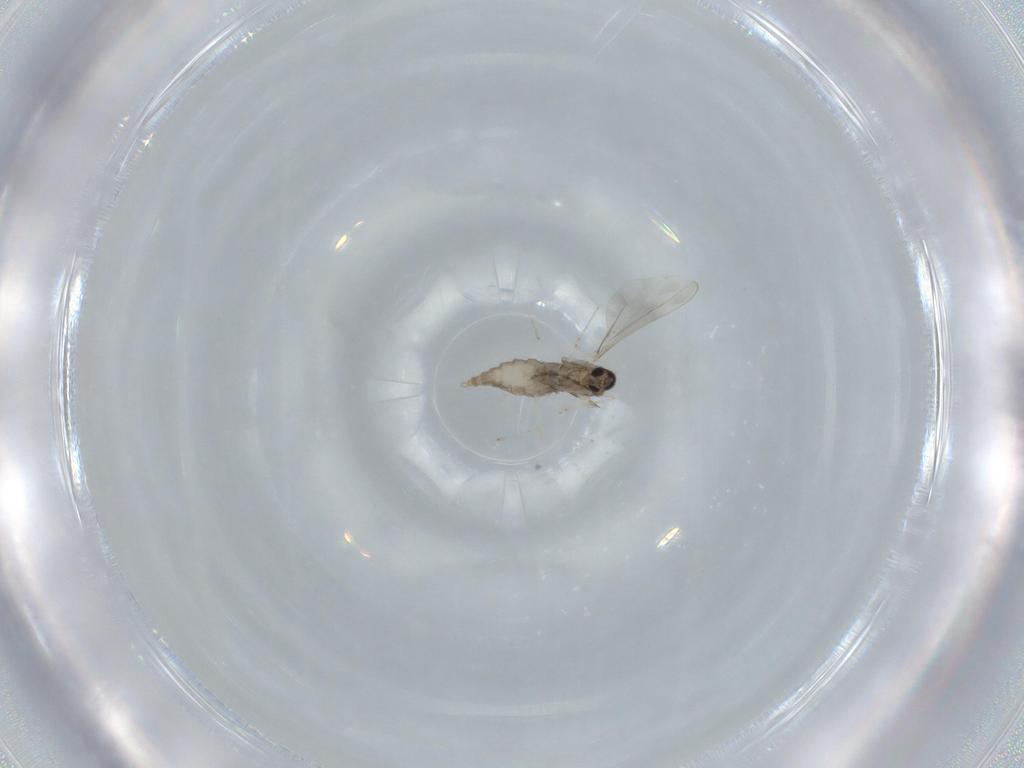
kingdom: Animalia
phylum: Arthropoda
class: Insecta
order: Diptera
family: Cecidomyiidae
